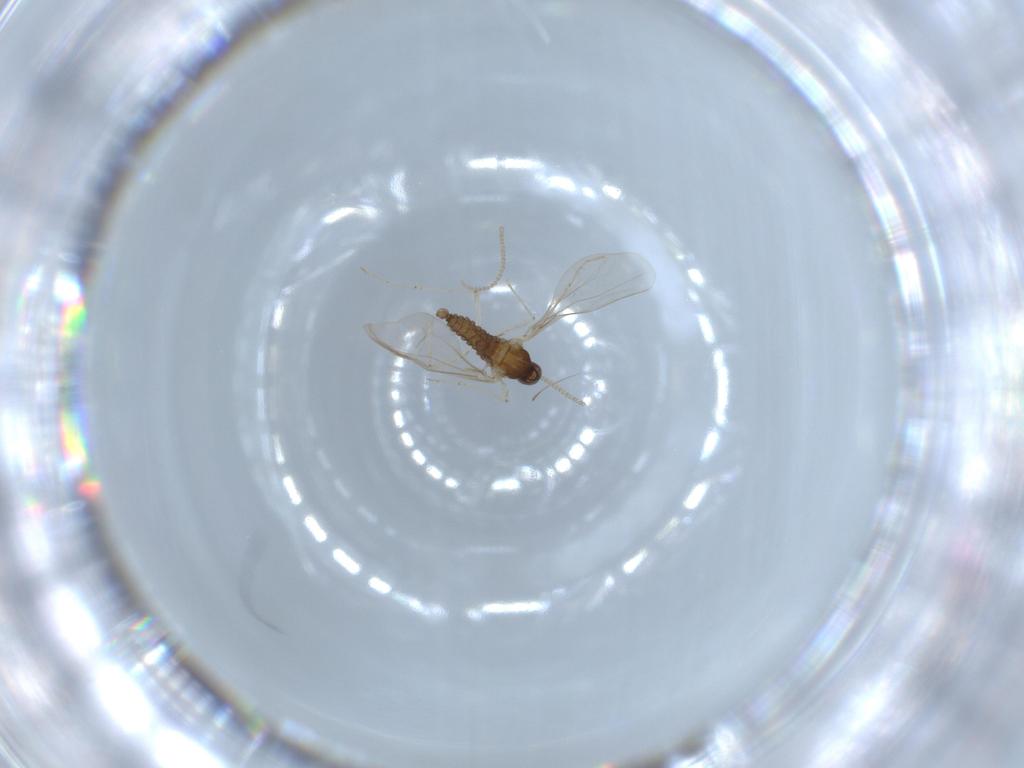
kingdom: Animalia
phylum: Arthropoda
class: Insecta
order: Diptera
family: Cecidomyiidae
